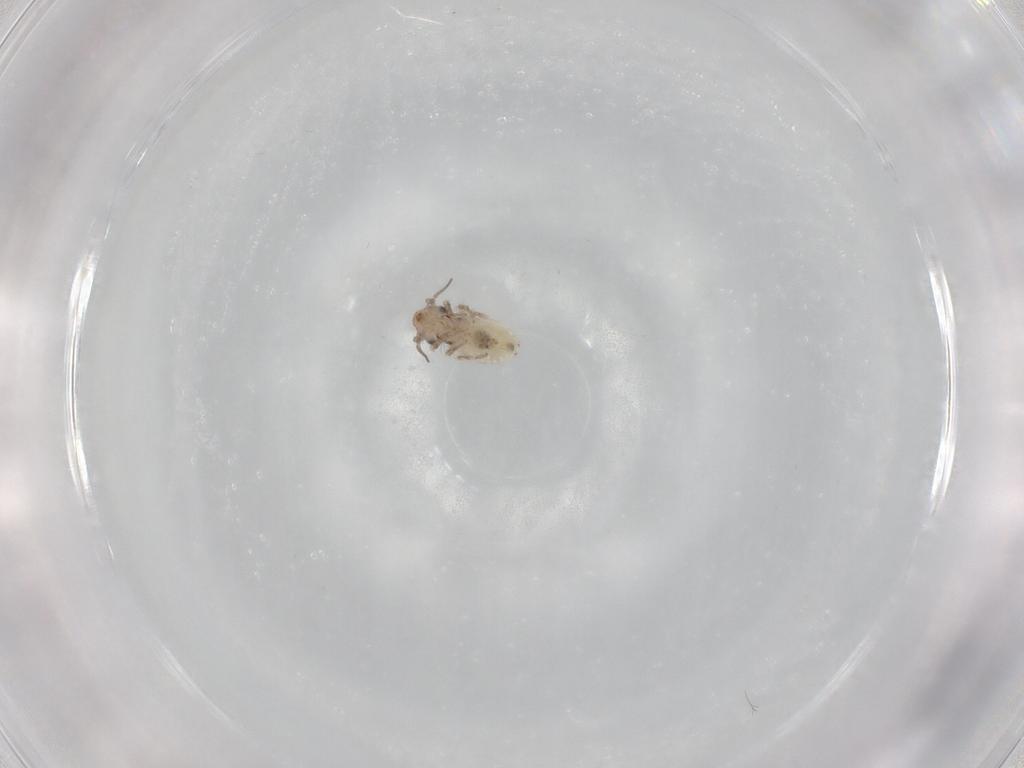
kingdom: Animalia
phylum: Arthropoda
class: Insecta
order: Psocodea
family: Lepidopsocidae
